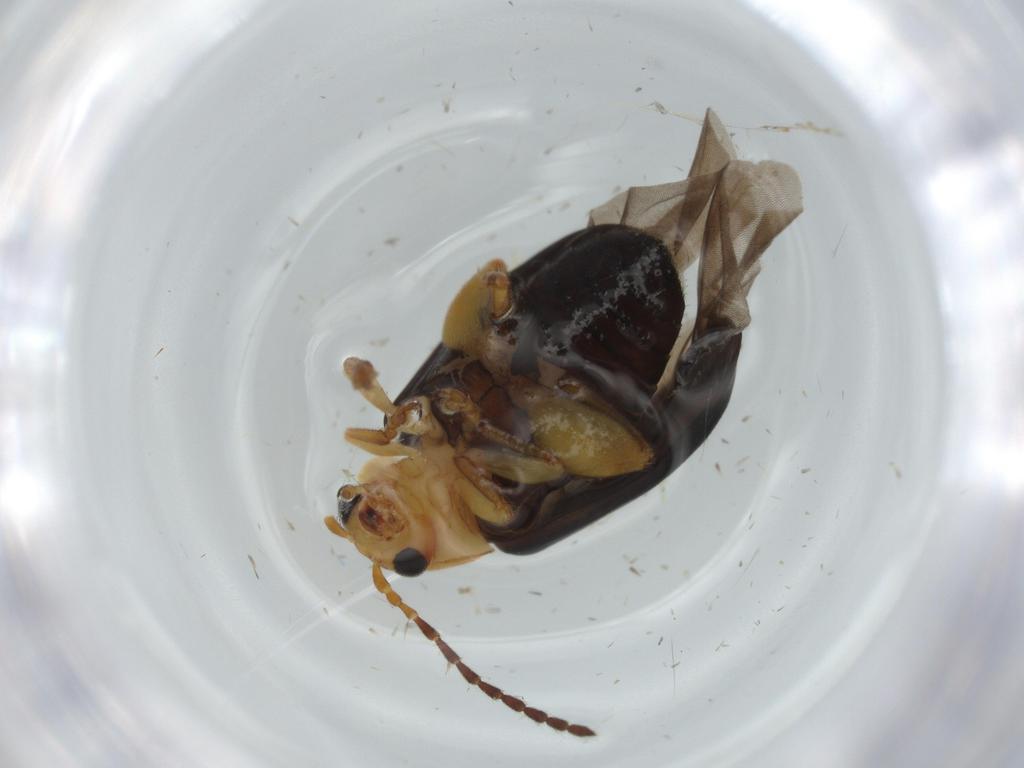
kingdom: Animalia
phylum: Arthropoda
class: Insecta
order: Coleoptera
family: Chrysomelidae
